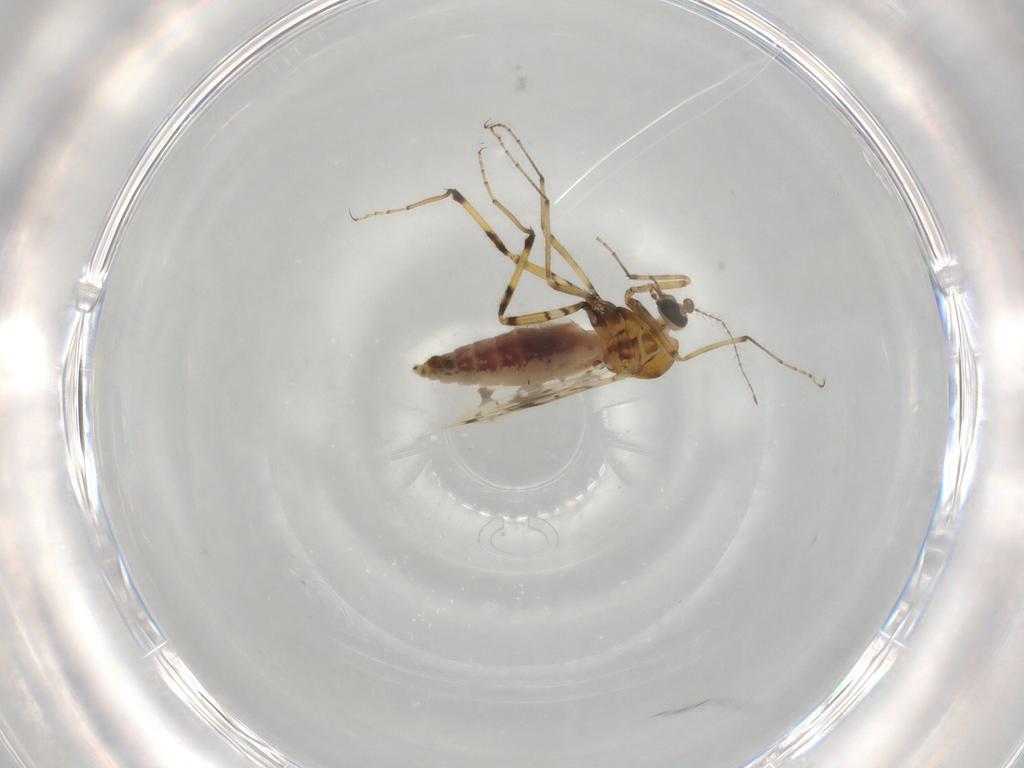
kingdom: Animalia
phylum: Arthropoda
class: Insecta
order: Diptera
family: Ceratopogonidae
